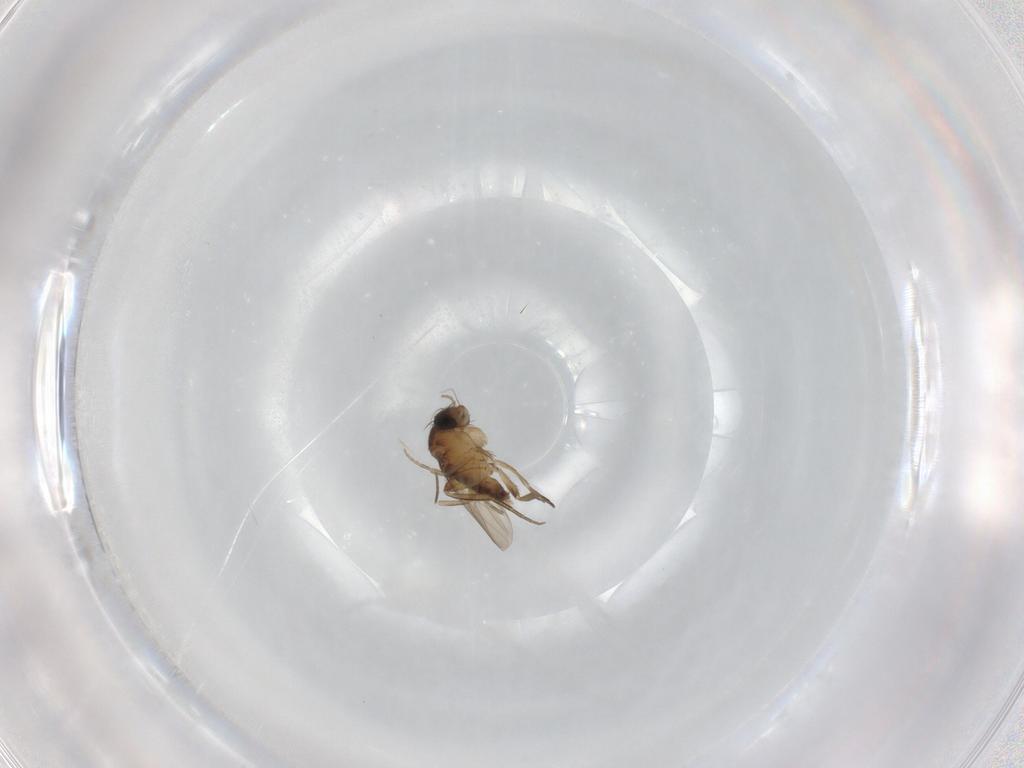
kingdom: Animalia
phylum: Arthropoda
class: Insecta
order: Diptera
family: Phoridae
